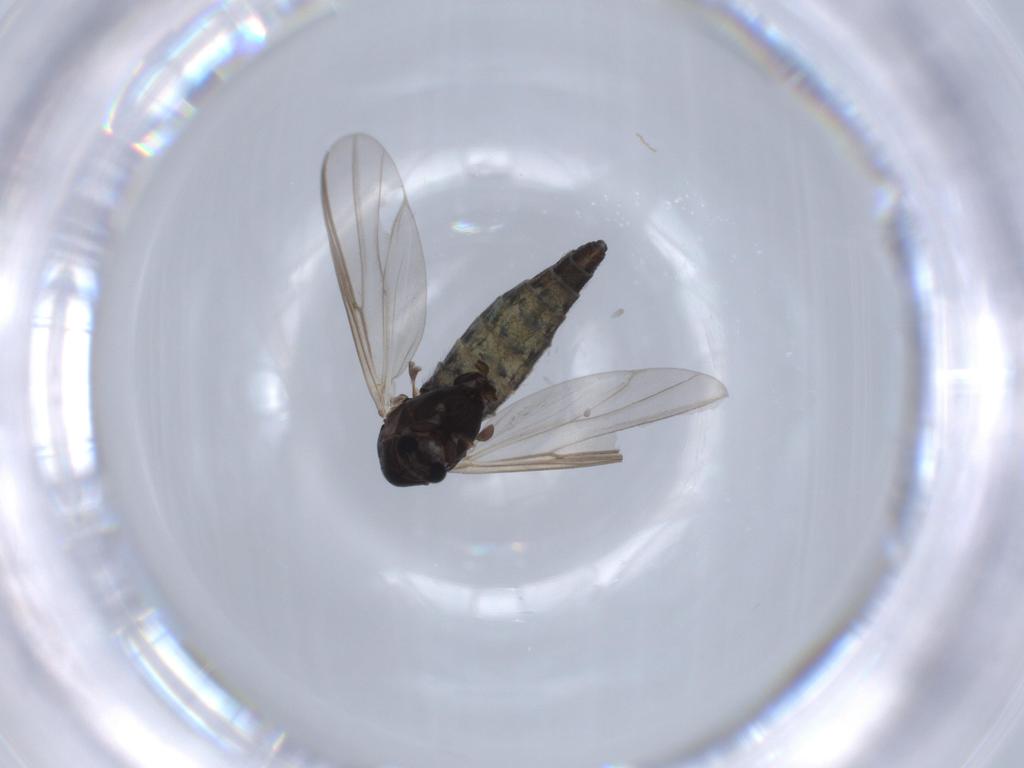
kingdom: Animalia
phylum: Arthropoda
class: Insecta
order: Diptera
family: Chironomidae
